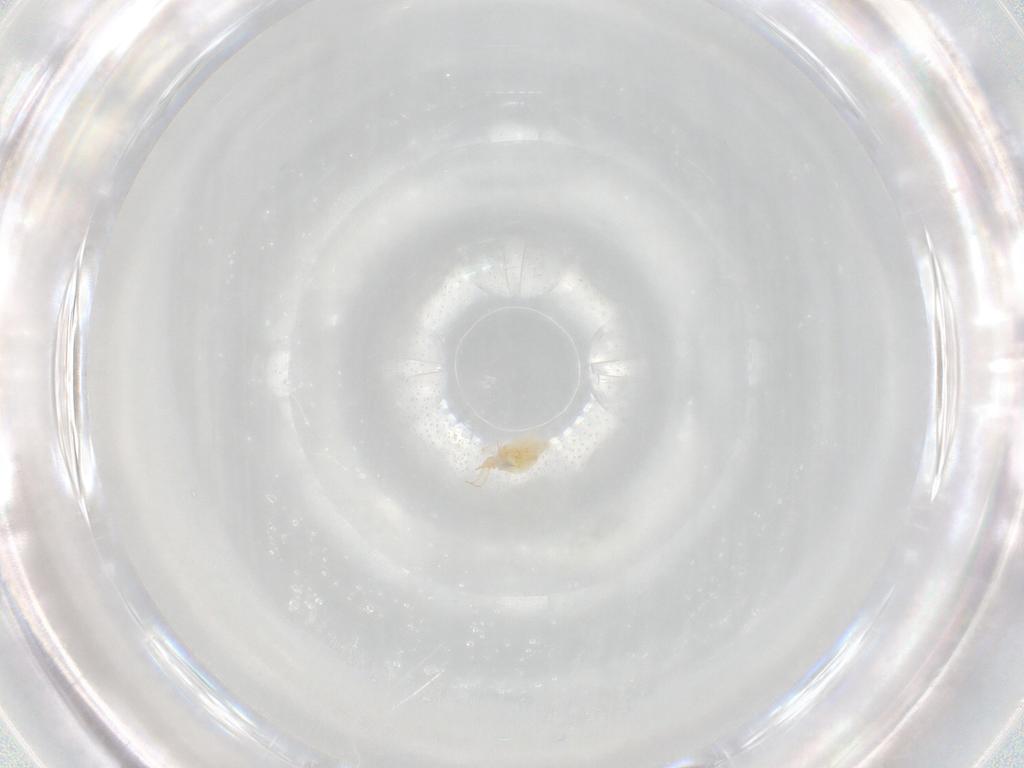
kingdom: Animalia
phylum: Arthropoda
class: Arachnida
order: Trombidiformes
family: Cunaxidae
